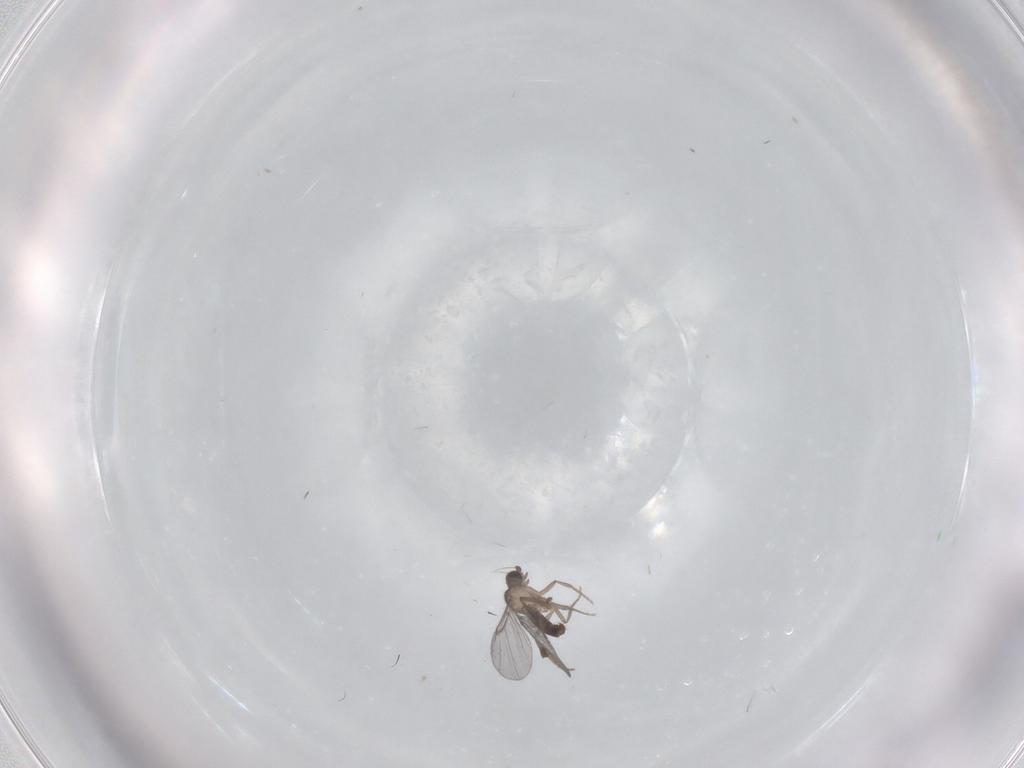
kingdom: Animalia
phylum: Arthropoda
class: Insecta
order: Diptera
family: Phoridae
